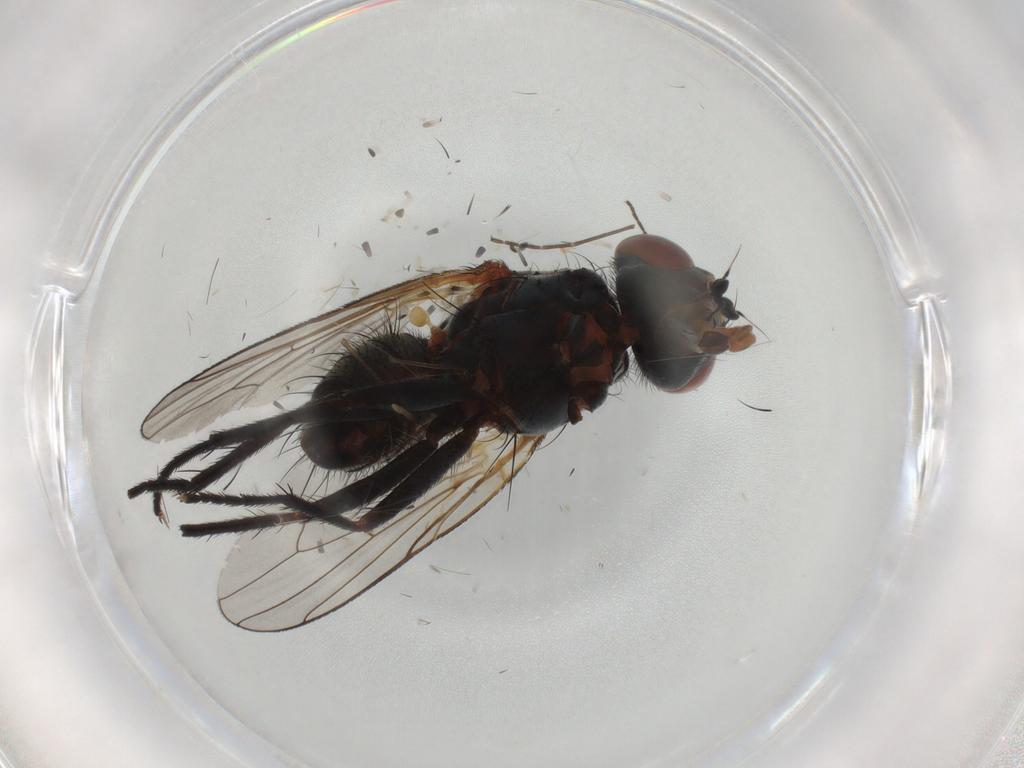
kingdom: Animalia
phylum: Arthropoda
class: Insecta
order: Diptera
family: Anthomyiidae
